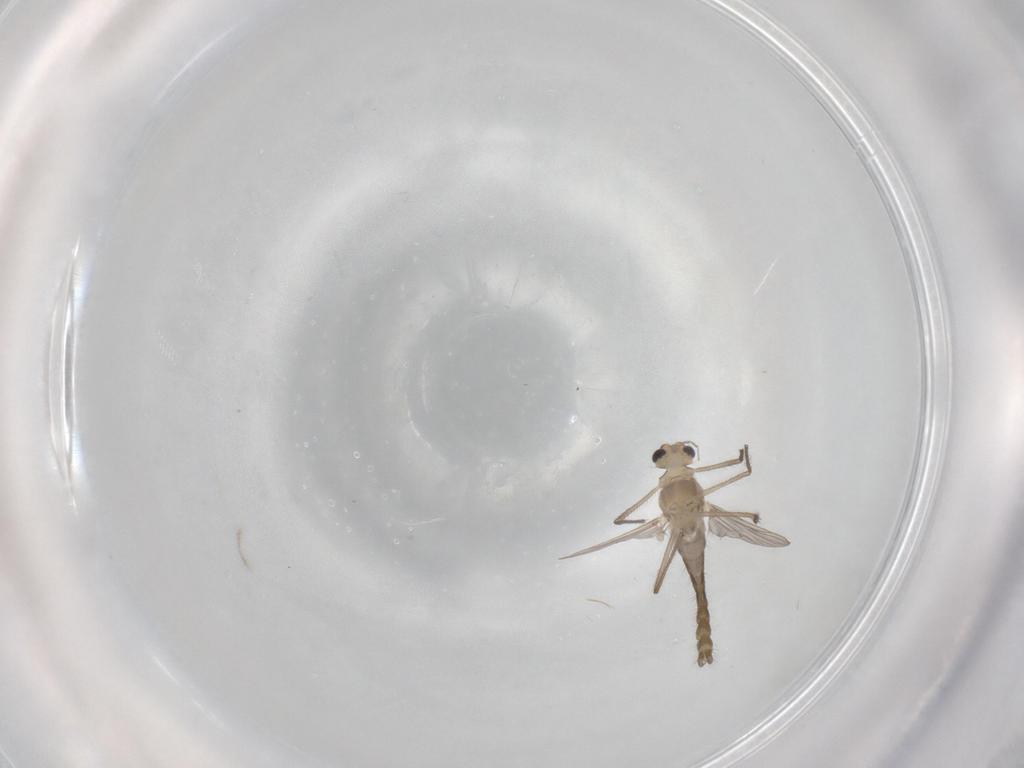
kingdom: Animalia
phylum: Arthropoda
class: Insecta
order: Diptera
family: Chironomidae
